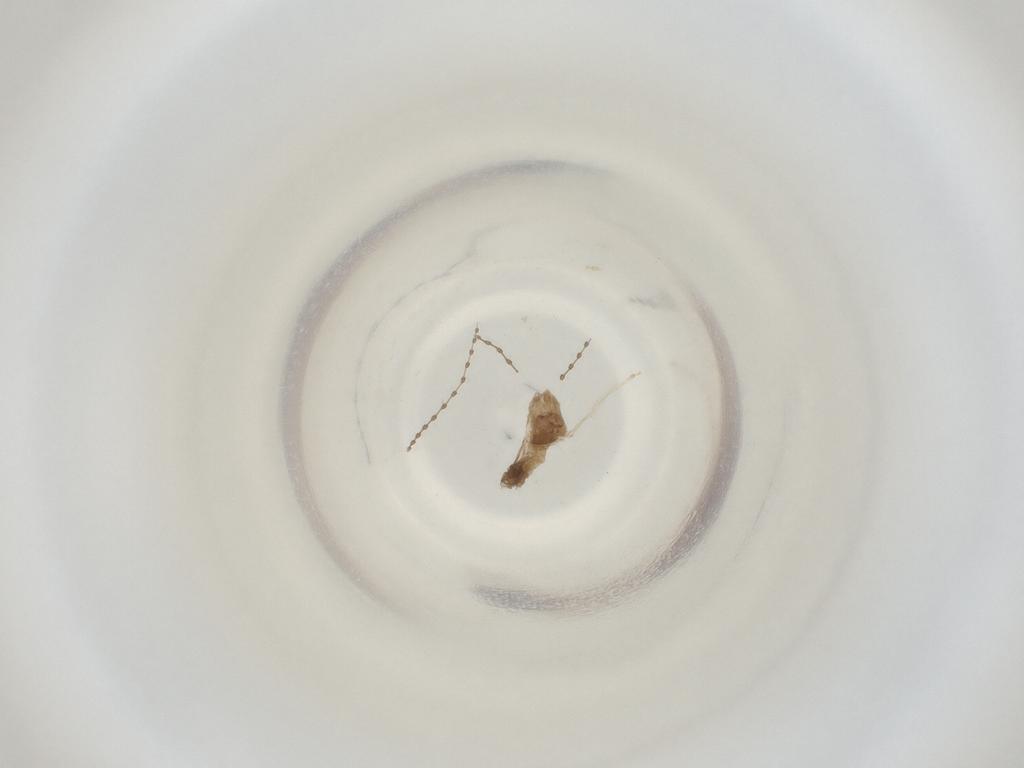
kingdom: Animalia
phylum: Arthropoda
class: Insecta
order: Diptera
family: Cecidomyiidae
